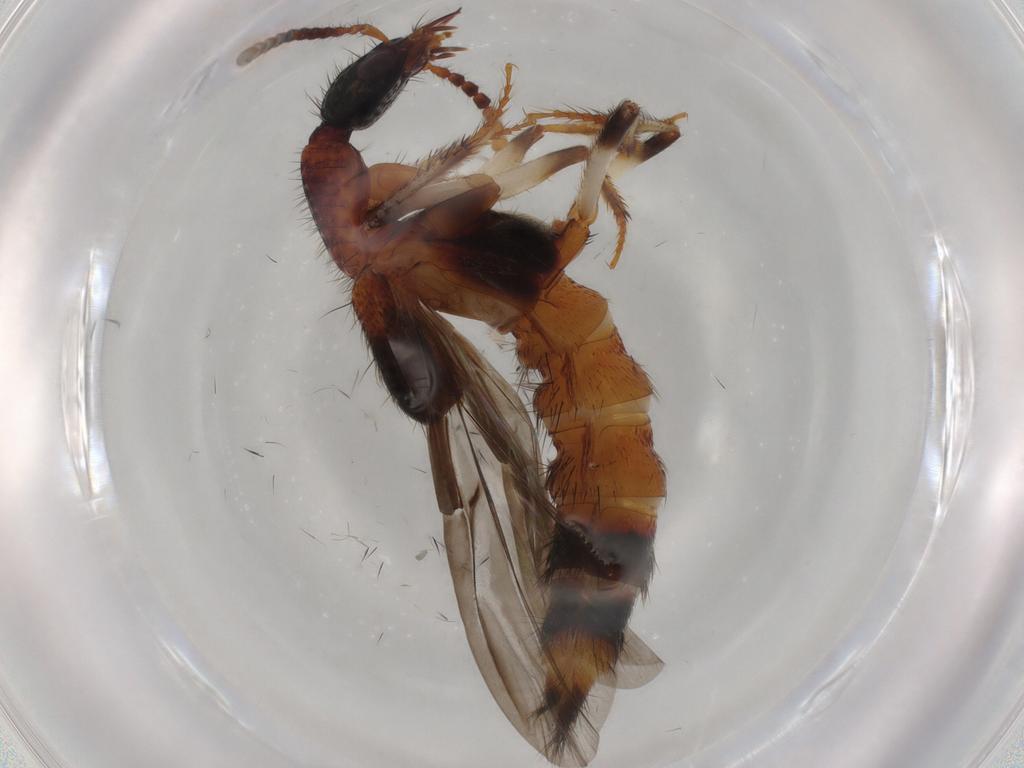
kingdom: Animalia
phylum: Arthropoda
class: Insecta
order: Coleoptera
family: Staphylinidae
